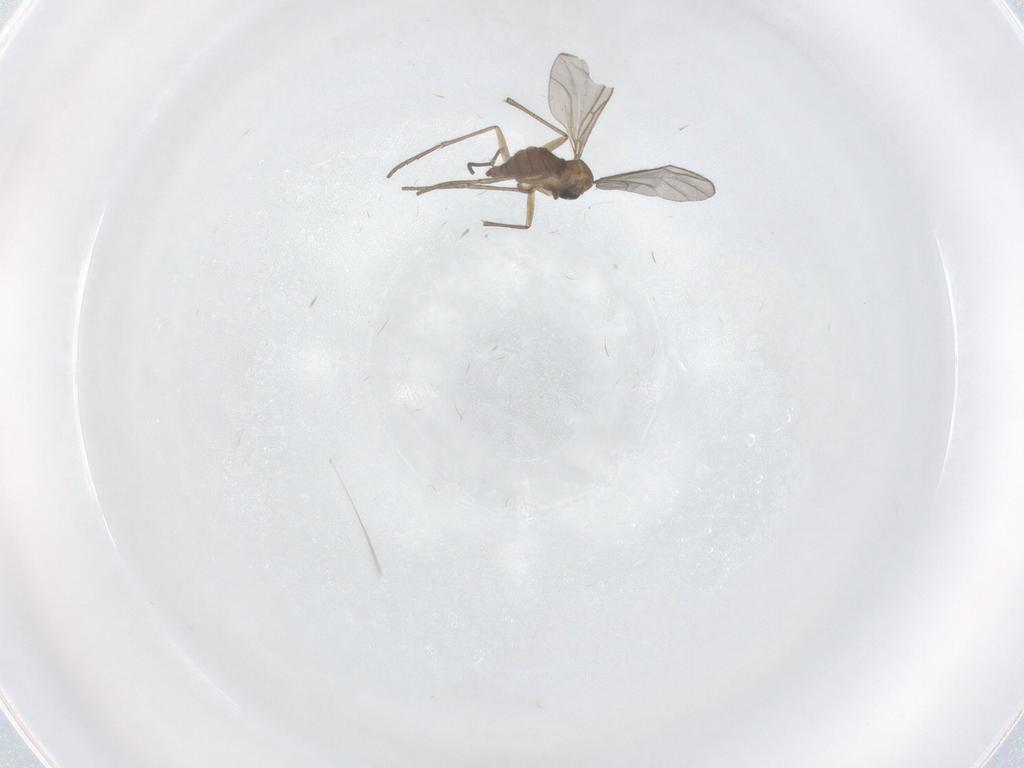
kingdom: Animalia
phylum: Arthropoda
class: Insecta
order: Diptera
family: Sciaridae
